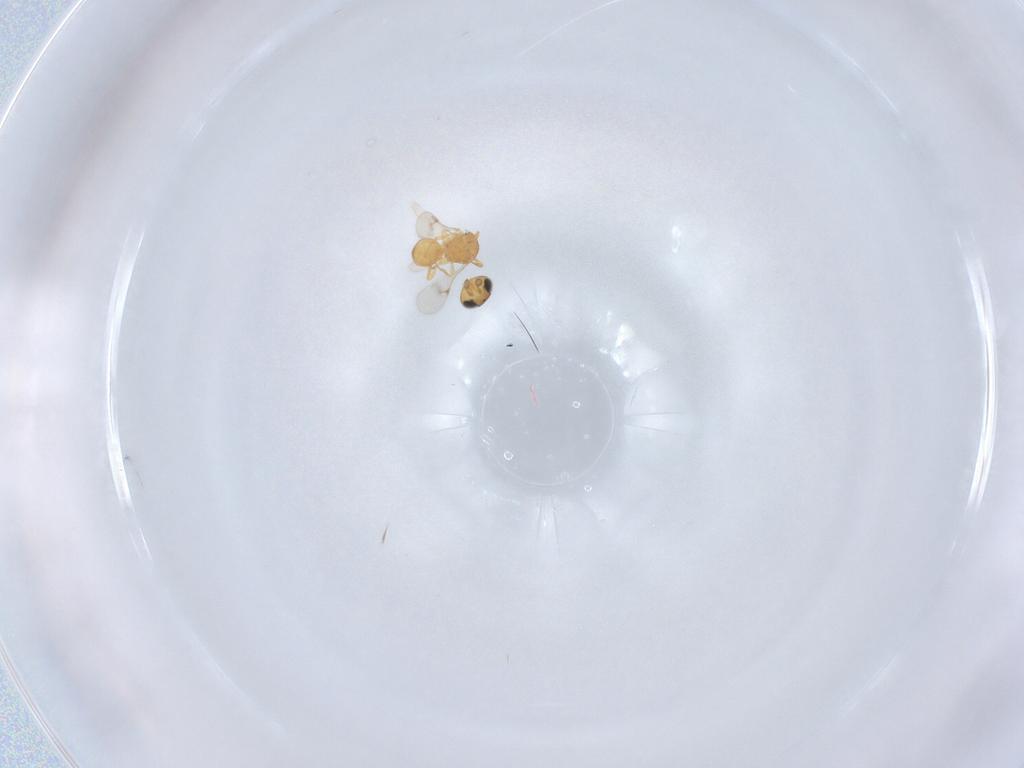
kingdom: Animalia
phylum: Arthropoda
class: Insecta
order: Hymenoptera
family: Scelionidae
